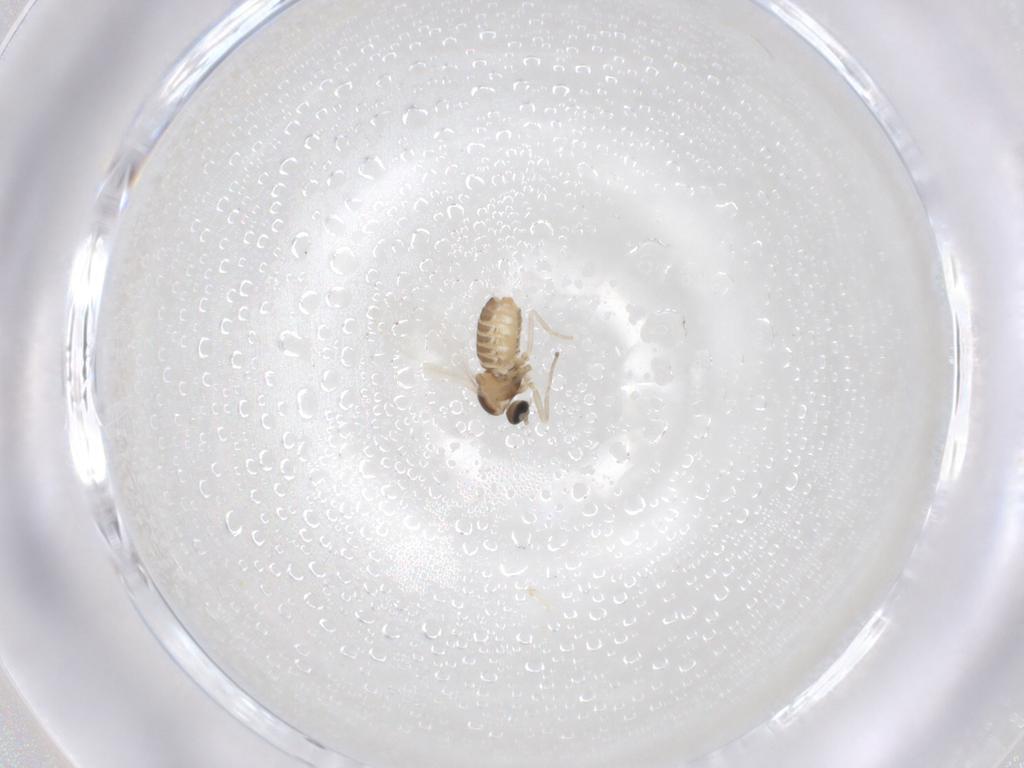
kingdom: Animalia
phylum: Arthropoda
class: Insecta
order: Diptera
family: Cecidomyiidae
